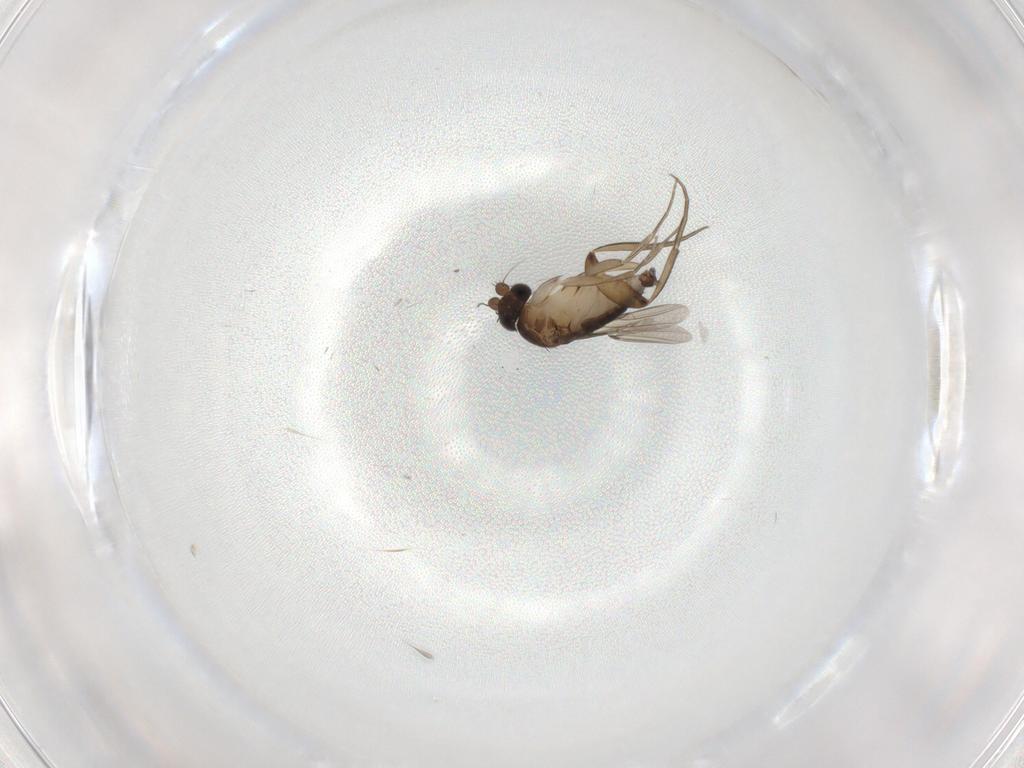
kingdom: Animalia
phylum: Arthropoda
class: Insecta
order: Diptera
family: Phoridae
